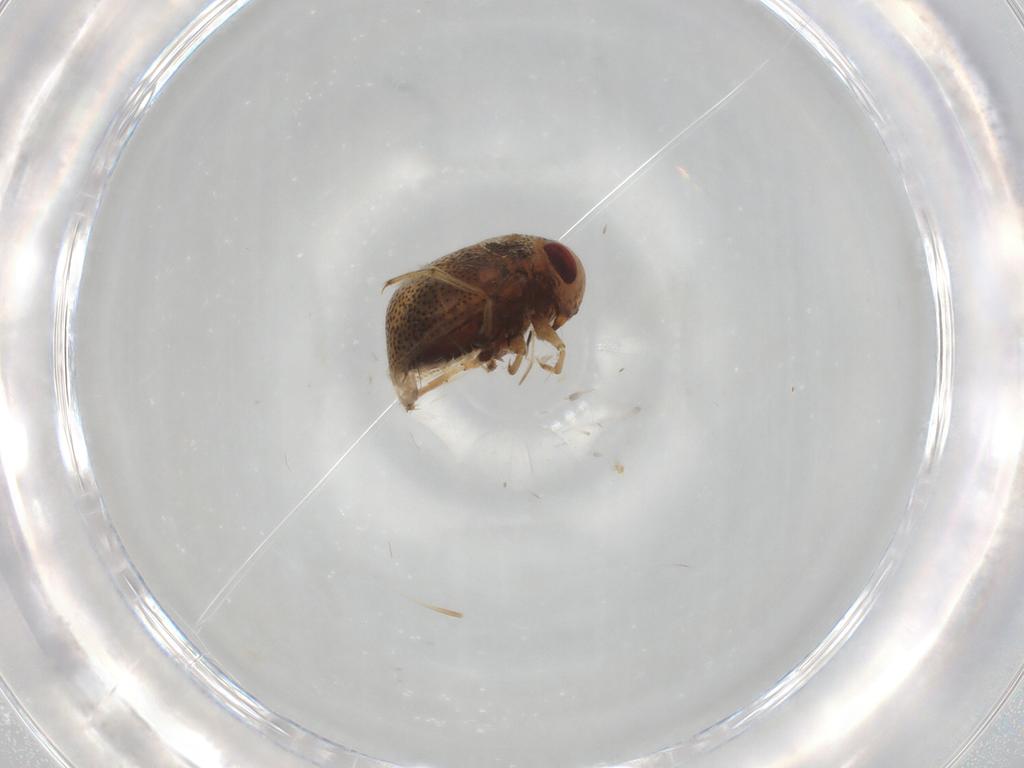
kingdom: Animalia
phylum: Arthropoda
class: Insecta
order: Hemiptera
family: Pleidae
